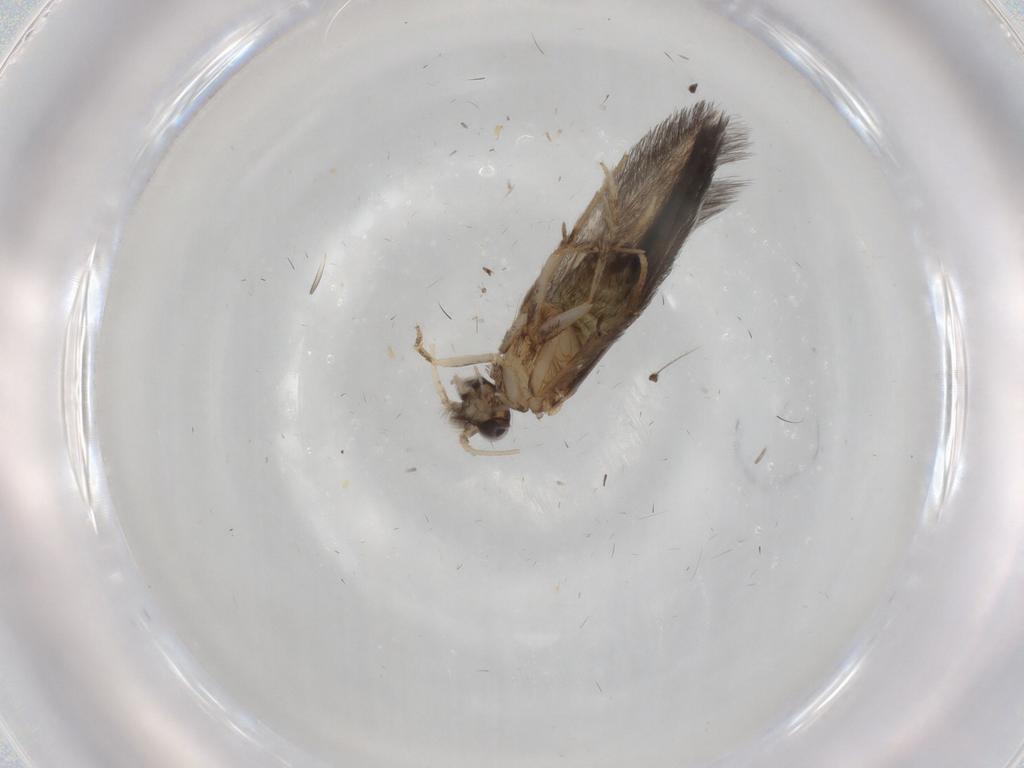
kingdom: Animalia
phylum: Arthropoda
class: Insecta
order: Trichoptera
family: Hydroptilidae
